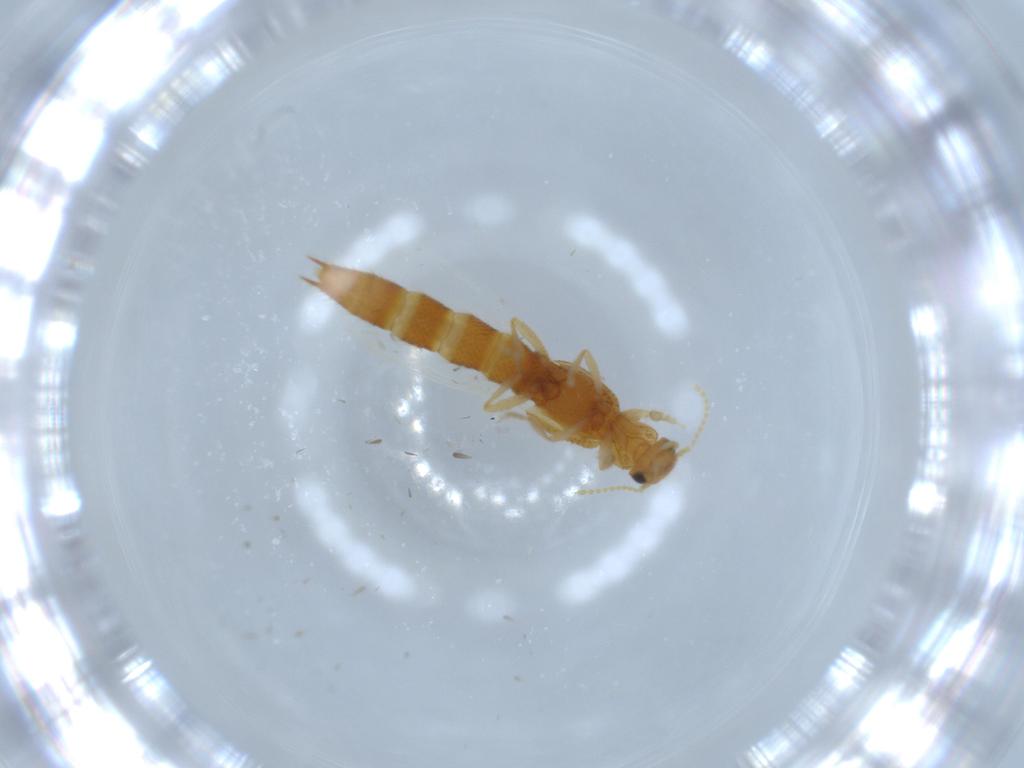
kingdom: Animalia
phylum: Arthropoda
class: Insecta
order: Coleoptera
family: Staphylinidae
